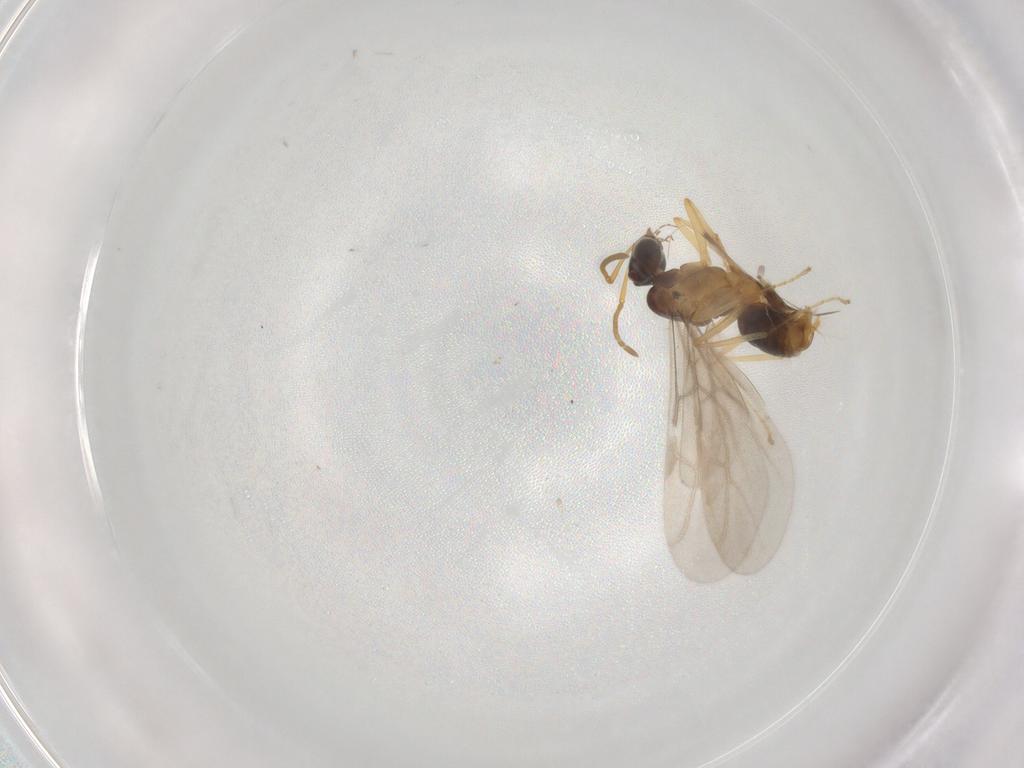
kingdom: Animalia
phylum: Arthropoda
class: Insecta
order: Hymenoptera
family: Formicidae
